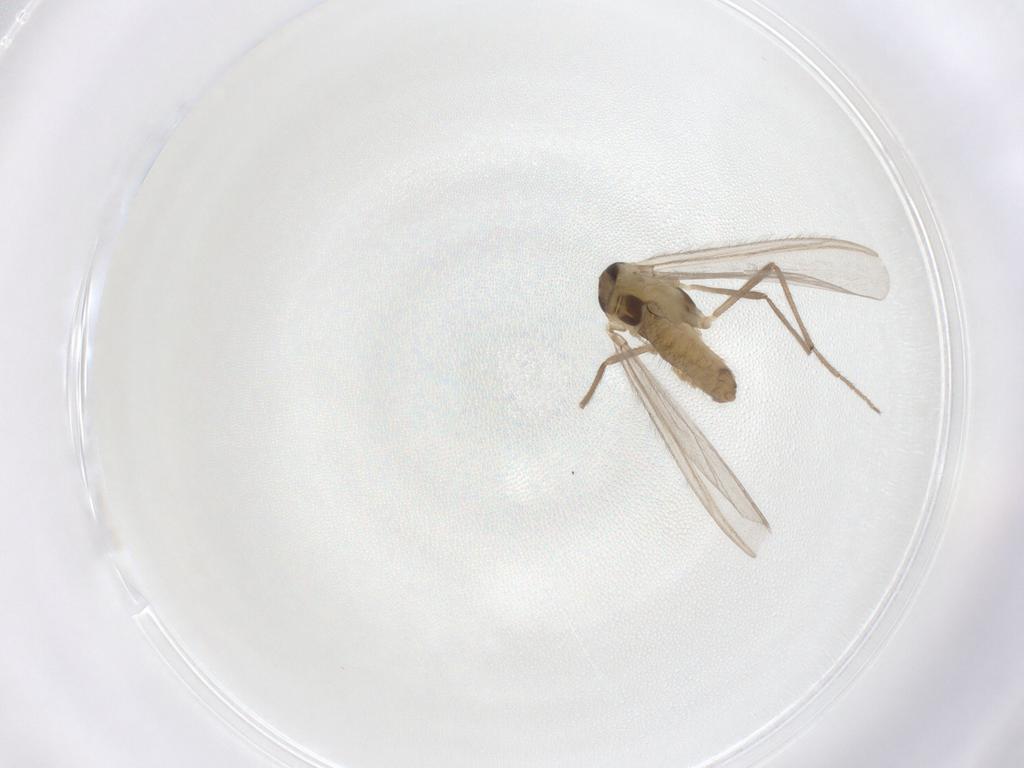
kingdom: Animalia
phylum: Arthropoda
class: Insecta
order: Diptera
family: Chironomidae
